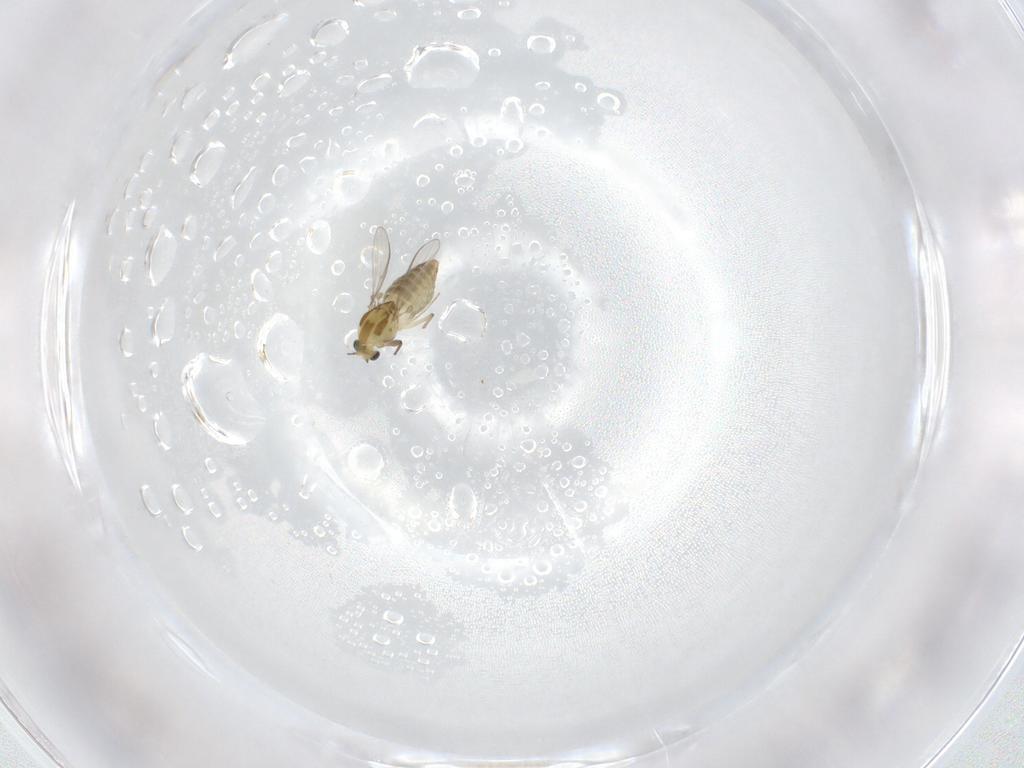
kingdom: Animalia
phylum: Arthropoda
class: Insecta
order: Diptera
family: Chironomidae
